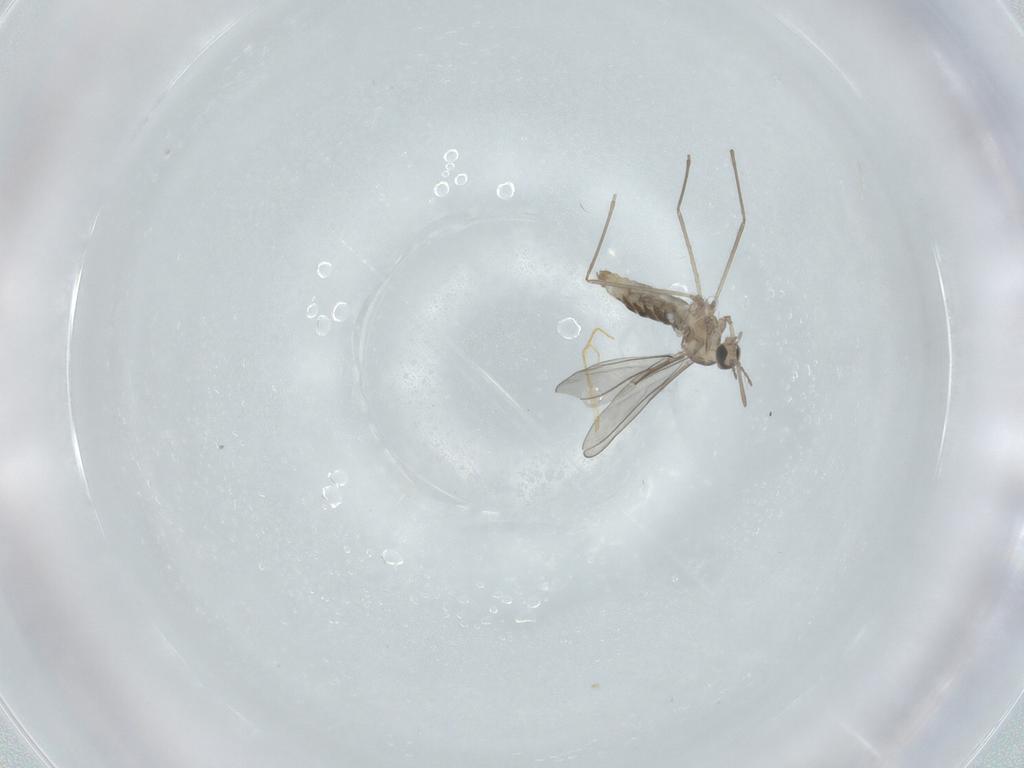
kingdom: Animalia
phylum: Arthropoda
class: Insecta
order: Diptera
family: Cecidomyiidae
